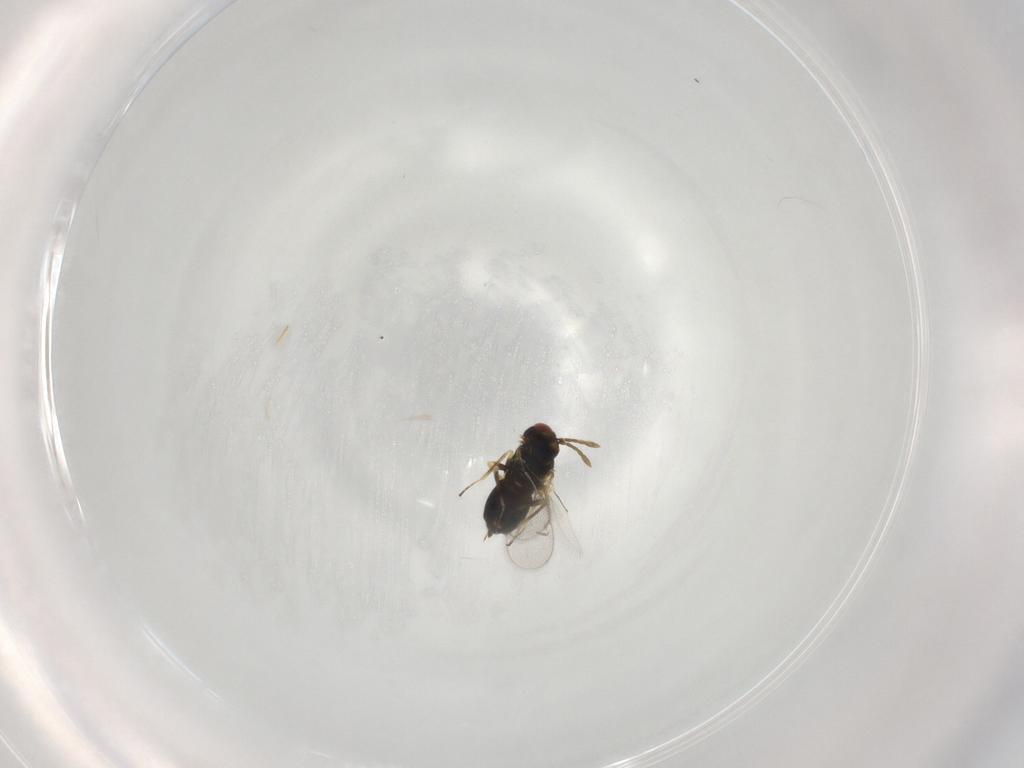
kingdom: Animalia
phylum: Arthropoda
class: Insecta
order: Hymenoptera
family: Eulophidae
